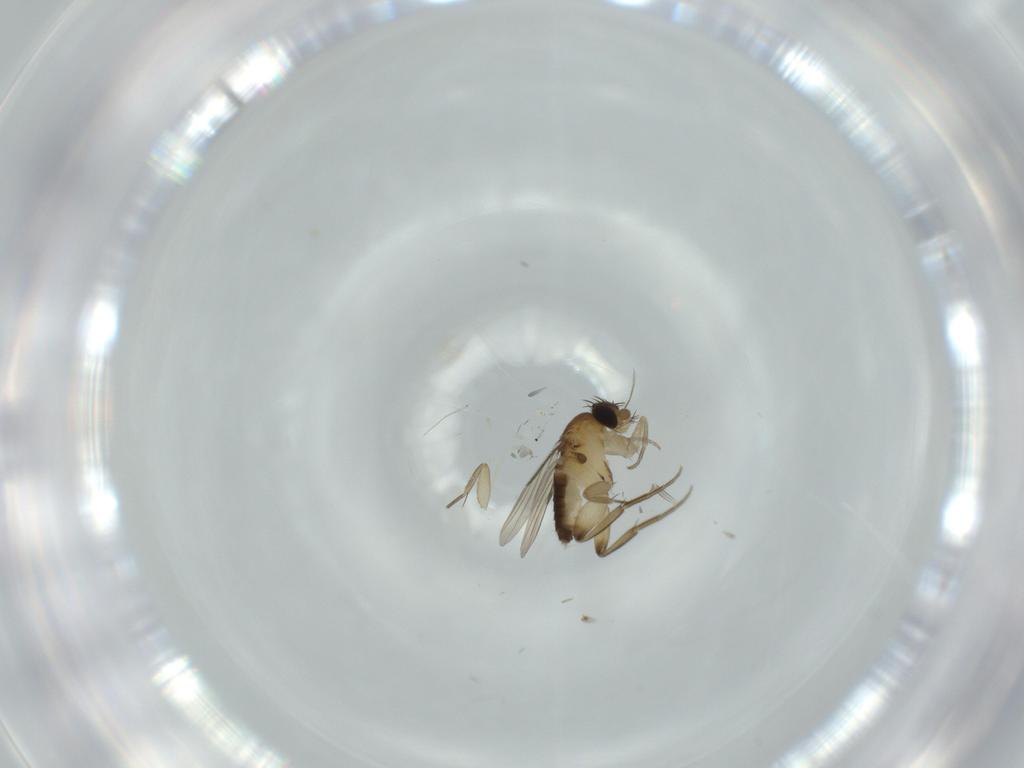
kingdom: Animalia
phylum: Arthropoda
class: Insecta
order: Diptera
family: Phoridae
